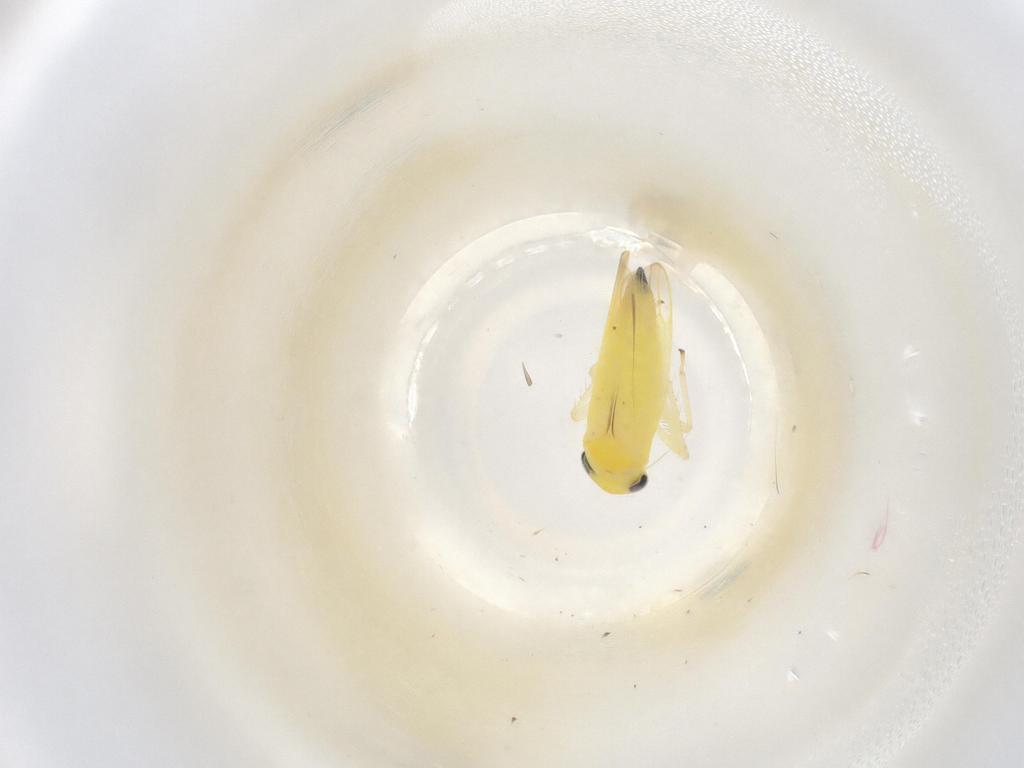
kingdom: Animalia
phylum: Arthropoda
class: Insecta
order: Hemiptera
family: Cicadellidae
